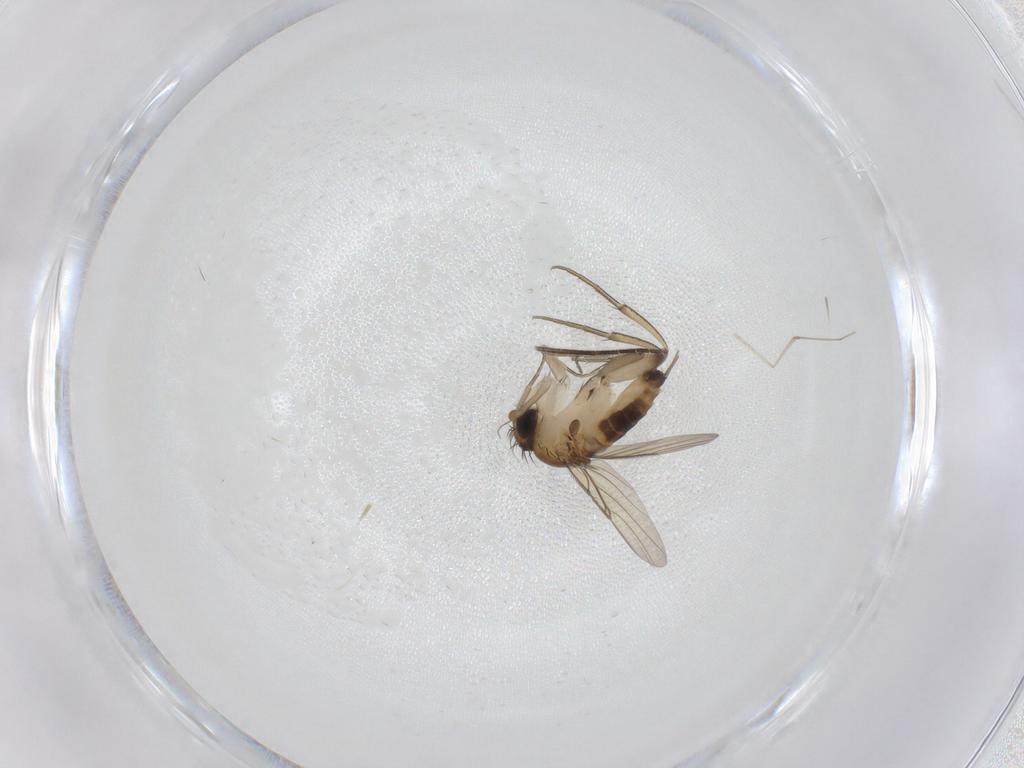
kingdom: Animalia
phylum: Arthropoda
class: Insecta
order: Diptera
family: Phoridae
